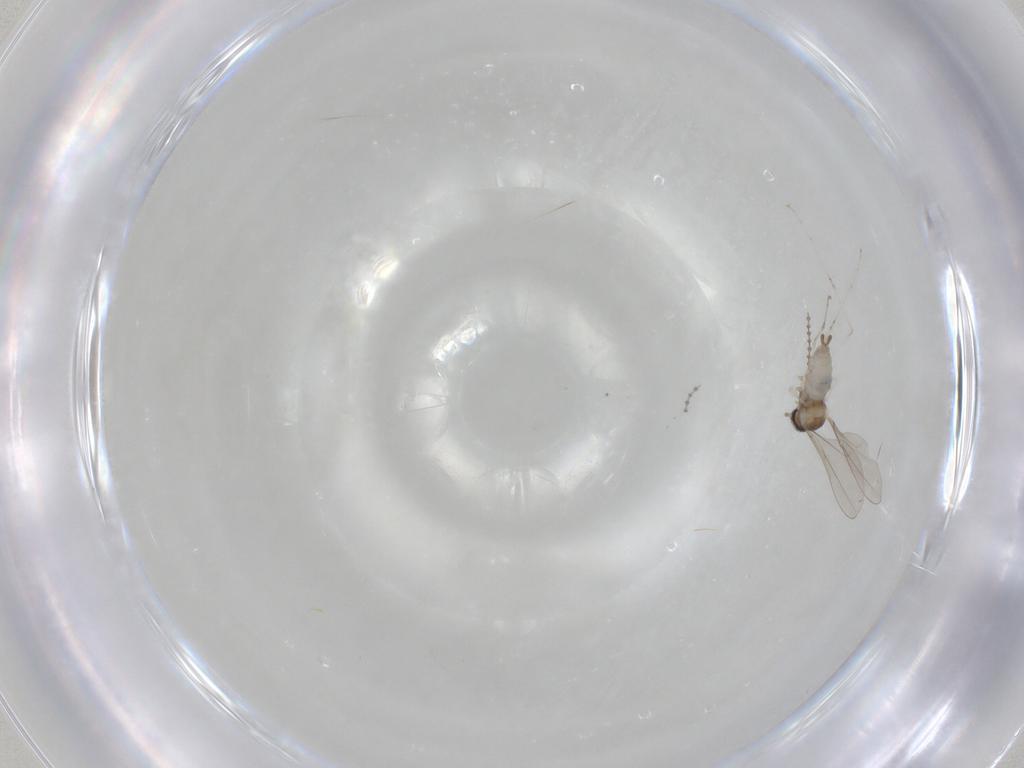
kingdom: Animalia
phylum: Arthropoda
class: Insecta
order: Diptera
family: Cecidomyiidae
